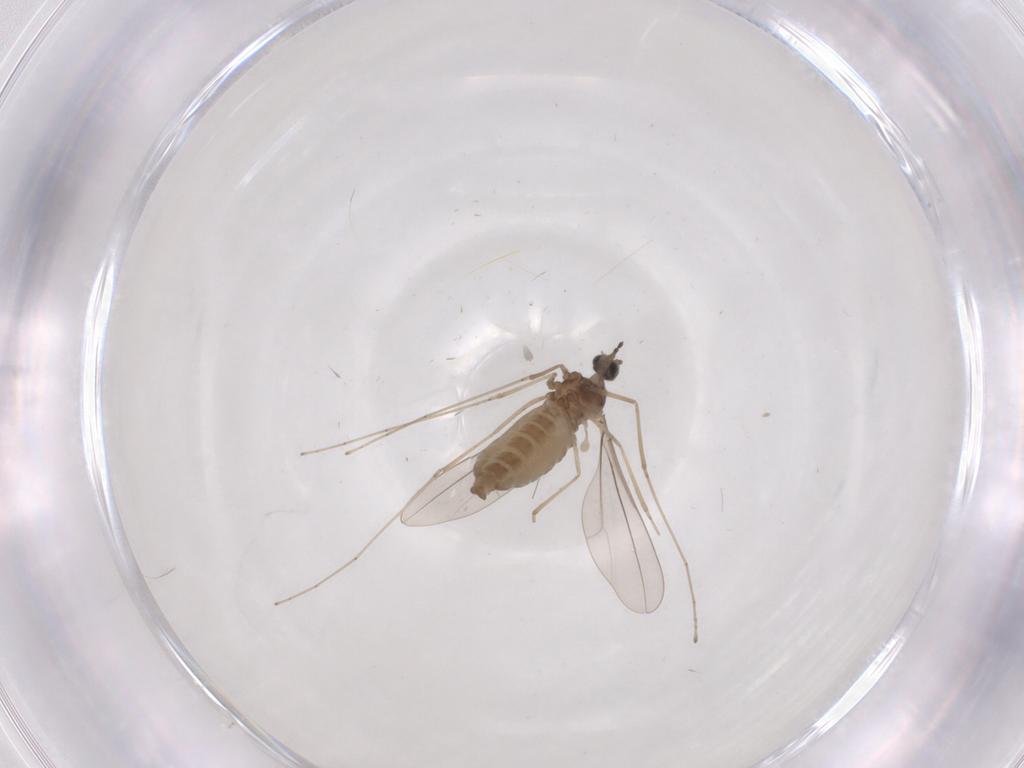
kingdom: Animalia
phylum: Arthropoda
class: Insecta
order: Diptera
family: Cecidomyiidae
